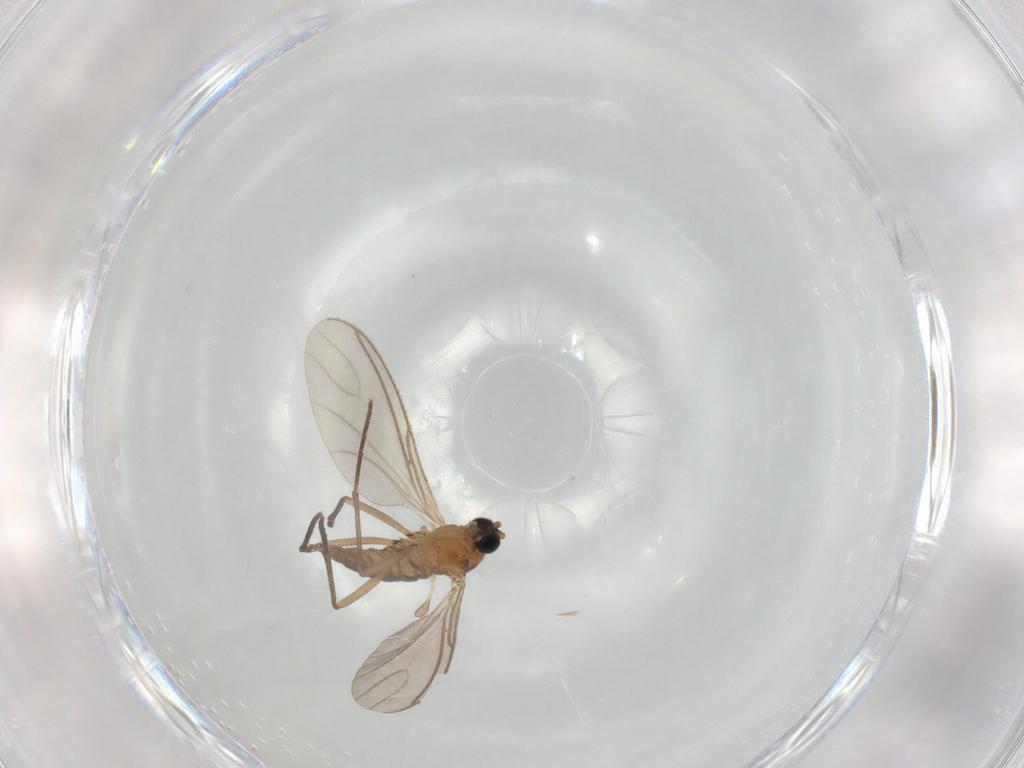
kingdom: Animalia
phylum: Arthropoda
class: Insecta
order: Diptera
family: Sciaridae
